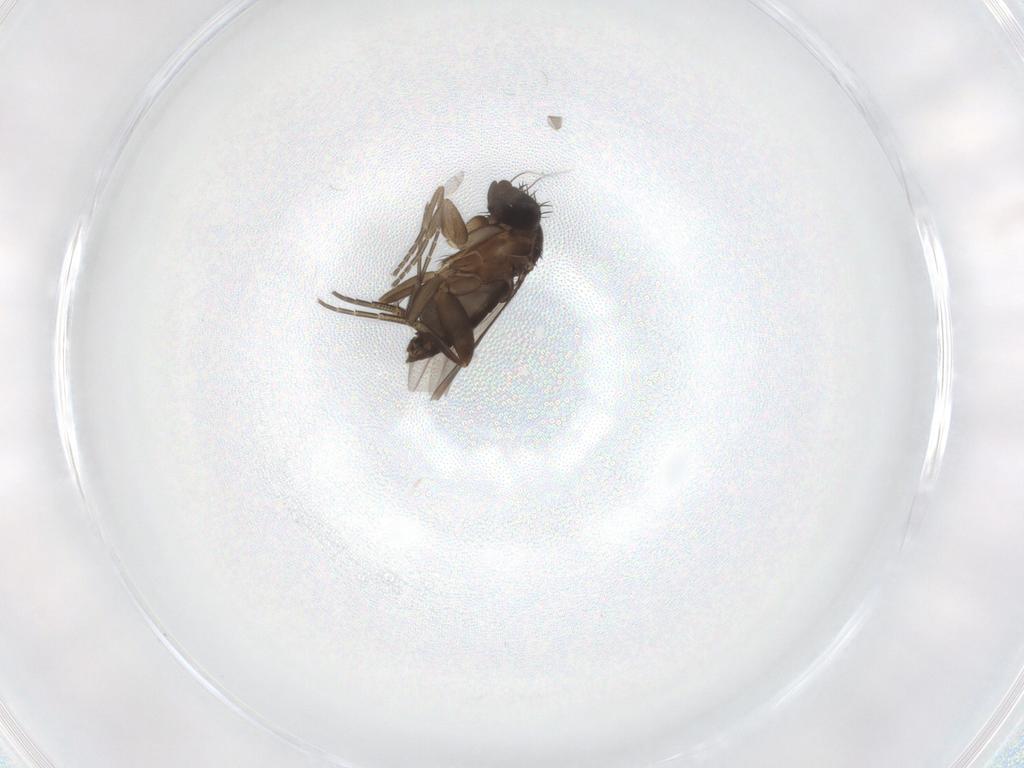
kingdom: Animalia
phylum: Arthropoda
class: Insecta
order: Diptera
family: Phoridae
